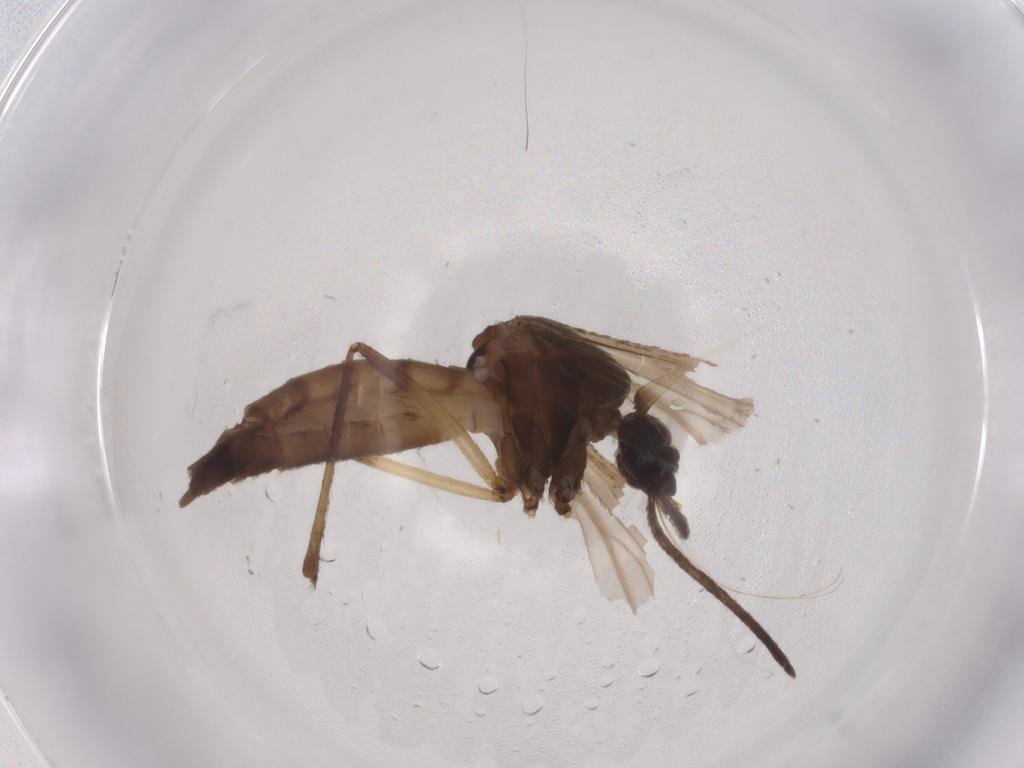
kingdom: Animalia
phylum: Arthropoda
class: Insecta
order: Diptera
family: Culicidae
